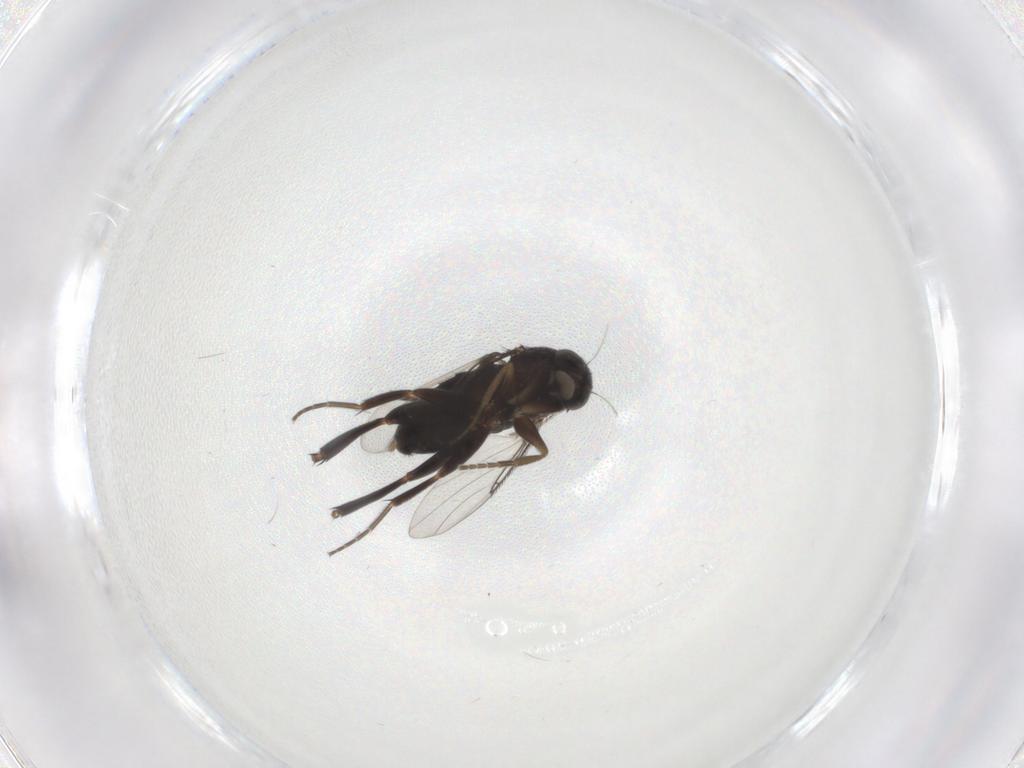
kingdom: Animalia
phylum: Arthropoda
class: Insecta
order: Diptera
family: Phoridae
